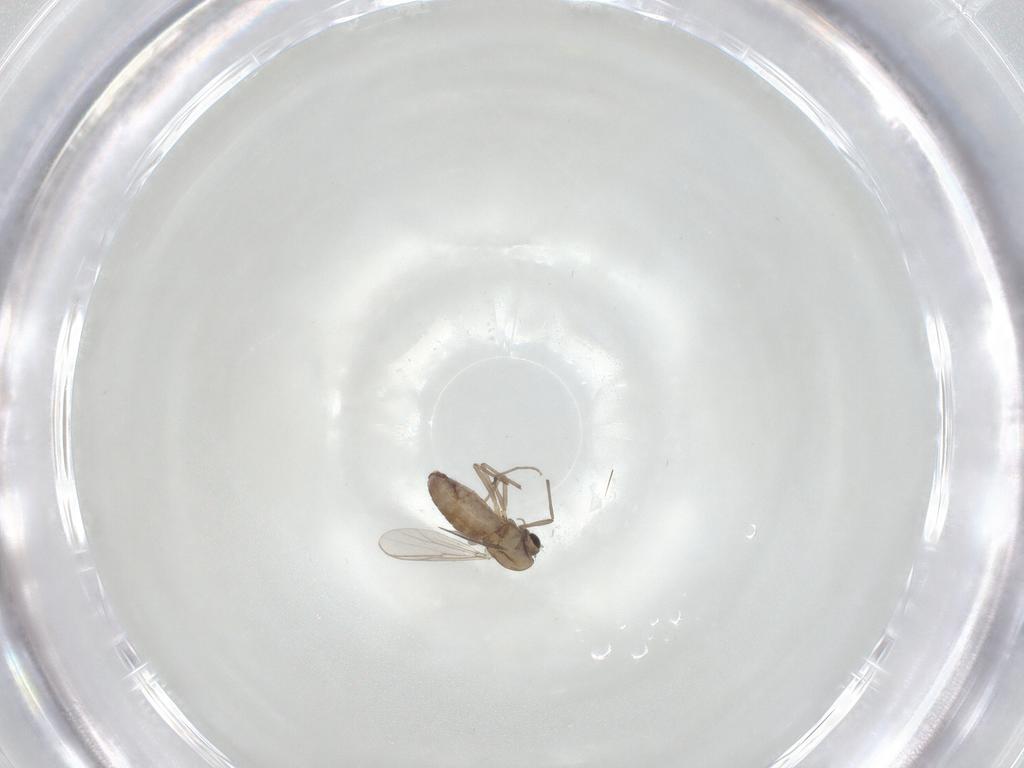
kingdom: Animalia
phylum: Arthropoda
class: Insecta
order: Diptera
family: Chironomidae
